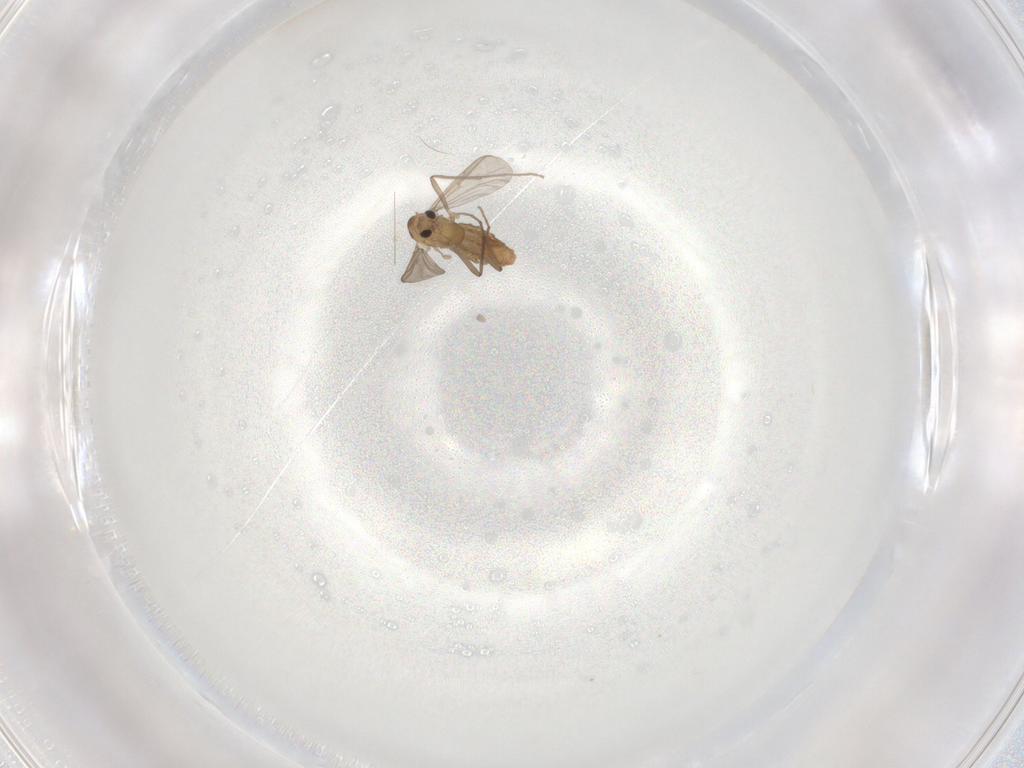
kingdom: Animalia
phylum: Arthropoda
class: Insecta
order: Diptera
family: Chironomidae
